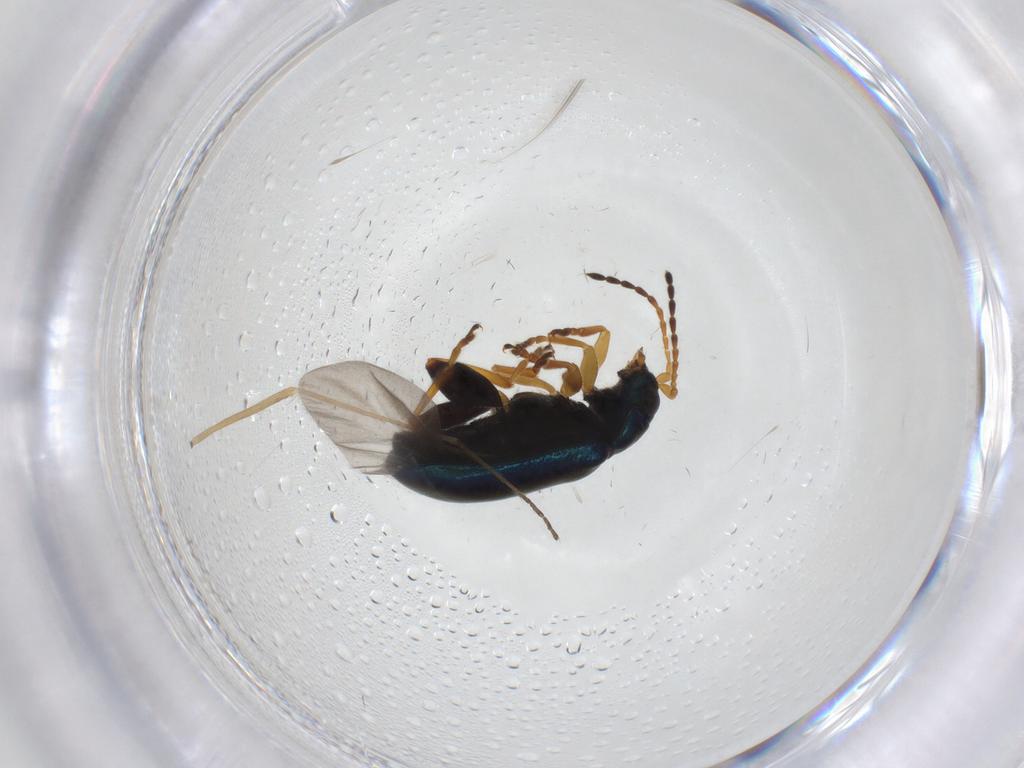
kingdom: Animalia
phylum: Arthropoda
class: Insecta
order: Coleoptera
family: Chrysomelidae
